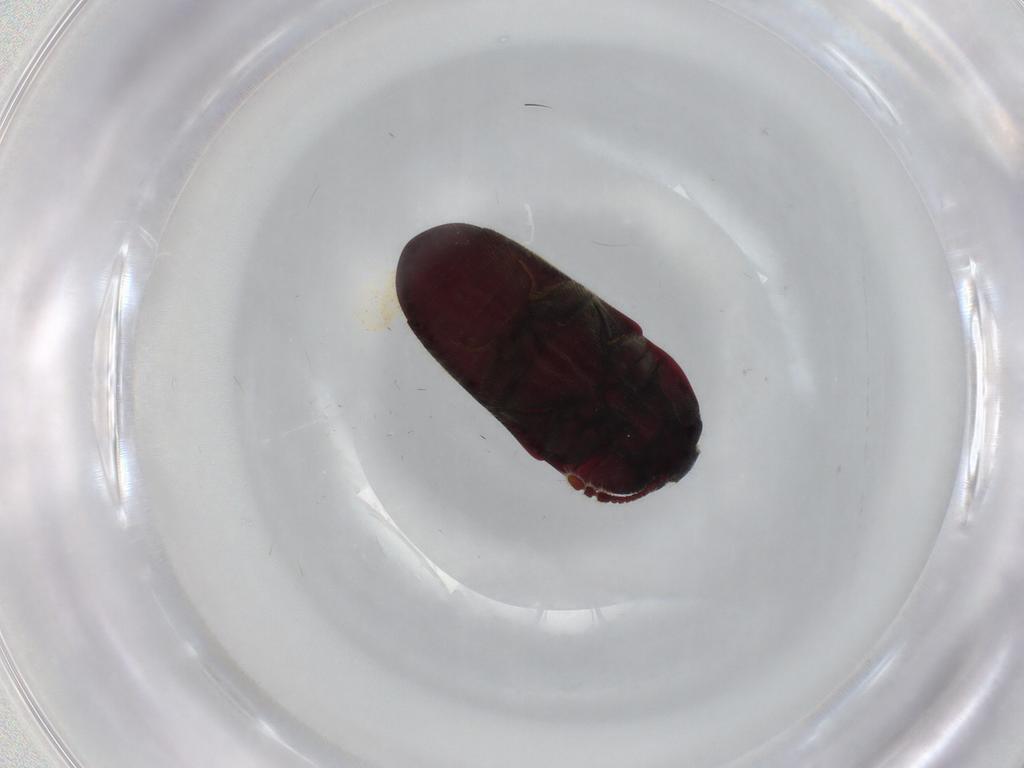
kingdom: Animalia
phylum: Arthropoda
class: Insecta
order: Coleoptera
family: Throscidae
